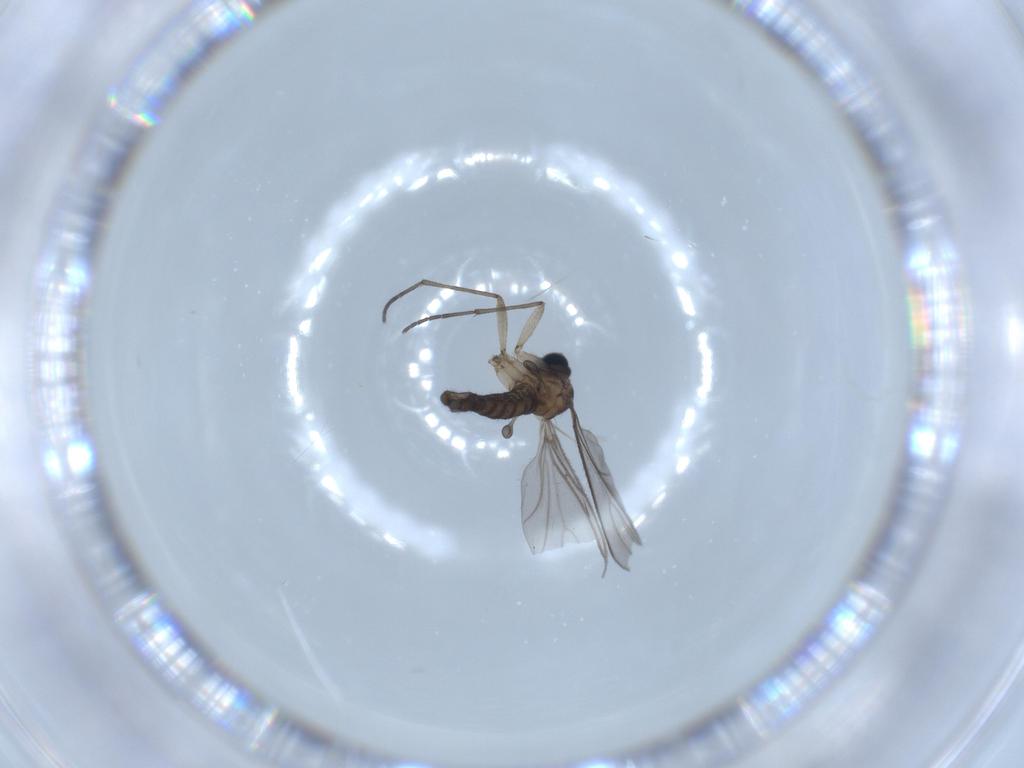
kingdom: Animalia
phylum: Arthropoda
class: Insecta
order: Diptera
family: Sciaridae
